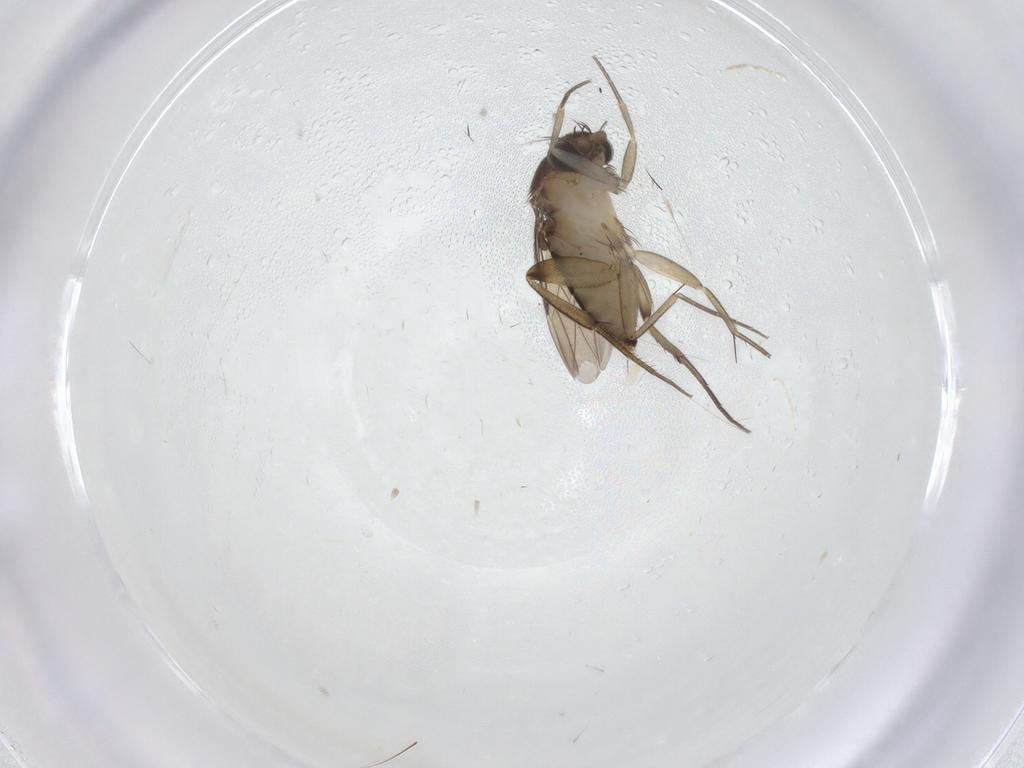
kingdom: Animalia
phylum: Arthropoda
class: Insecta
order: Diptera
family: Phoridae
